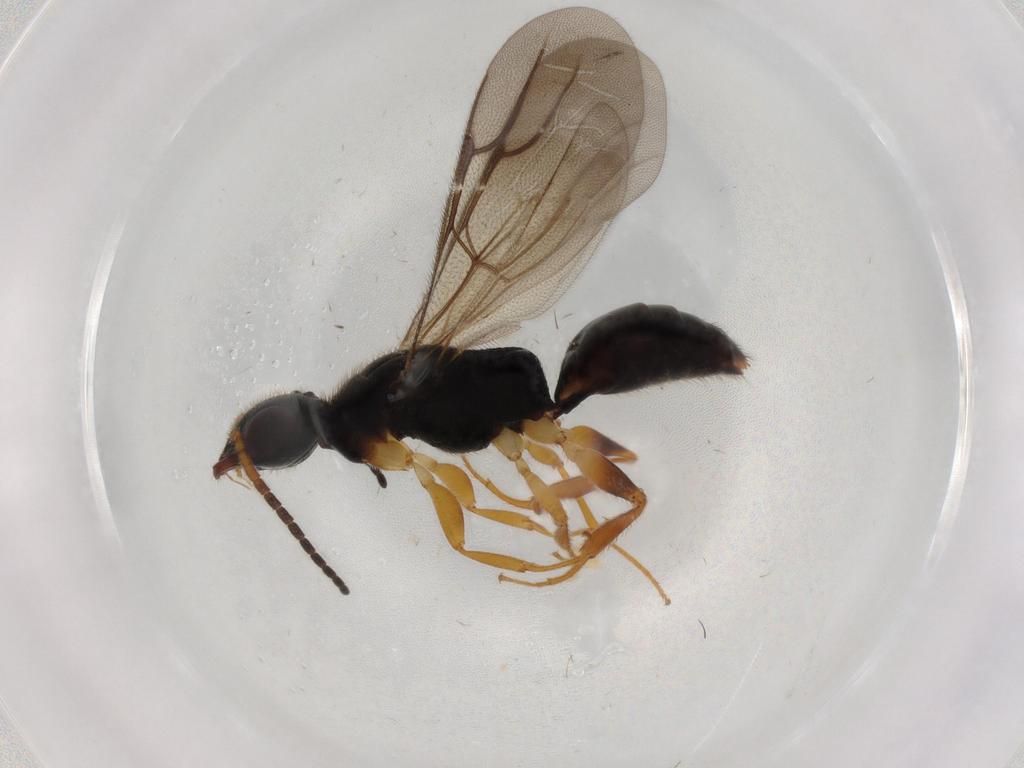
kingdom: Animalia
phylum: Arthropoda
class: Insecta
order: Hymenoptera
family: Bethylidae
